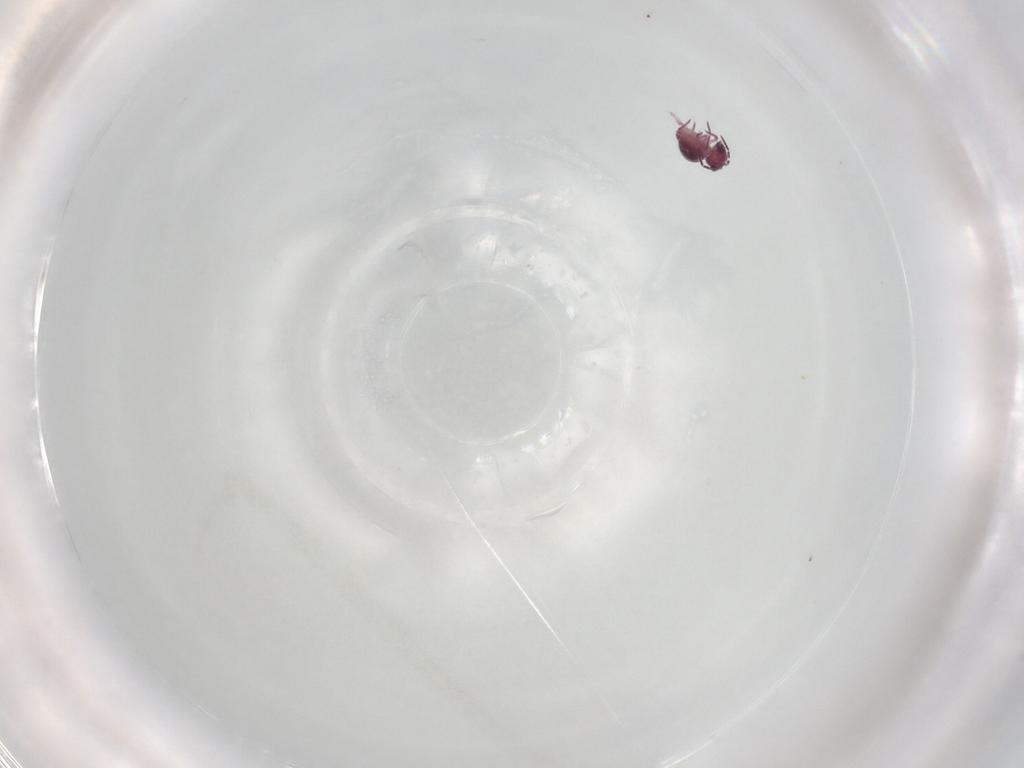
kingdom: Animalia
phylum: Arthropoda
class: Collembola
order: Symphypleona
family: Sminthurididae
